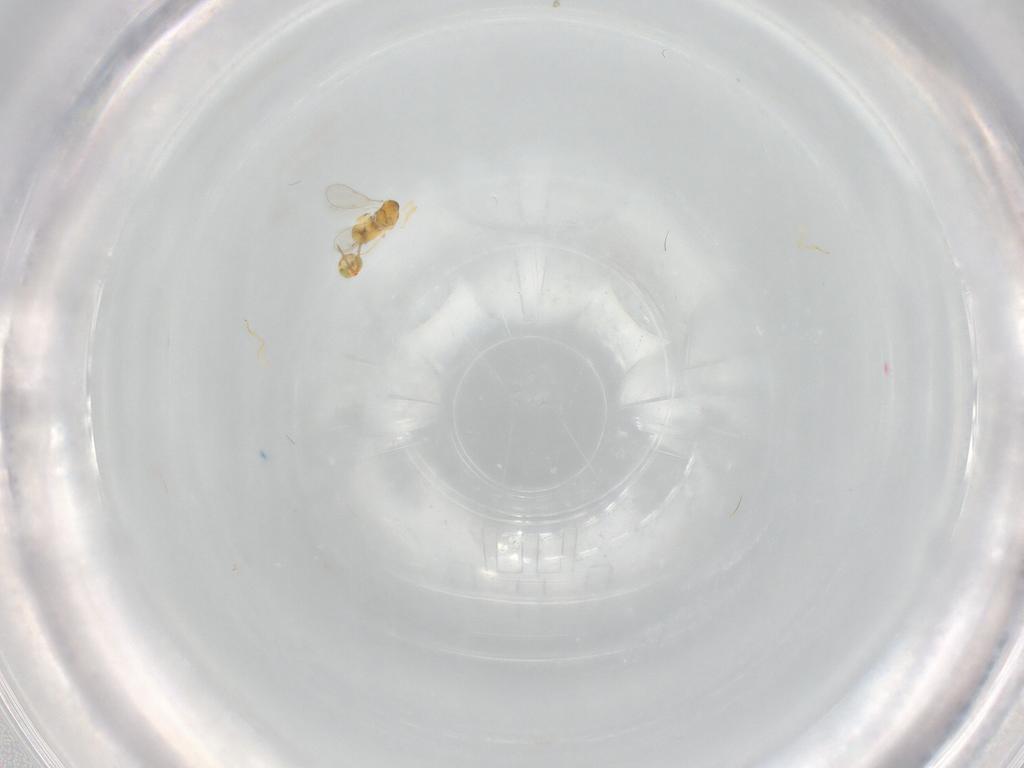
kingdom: Animalia
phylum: Arthropoda
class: Insecta
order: Hymenoptera
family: Aphelinidae
